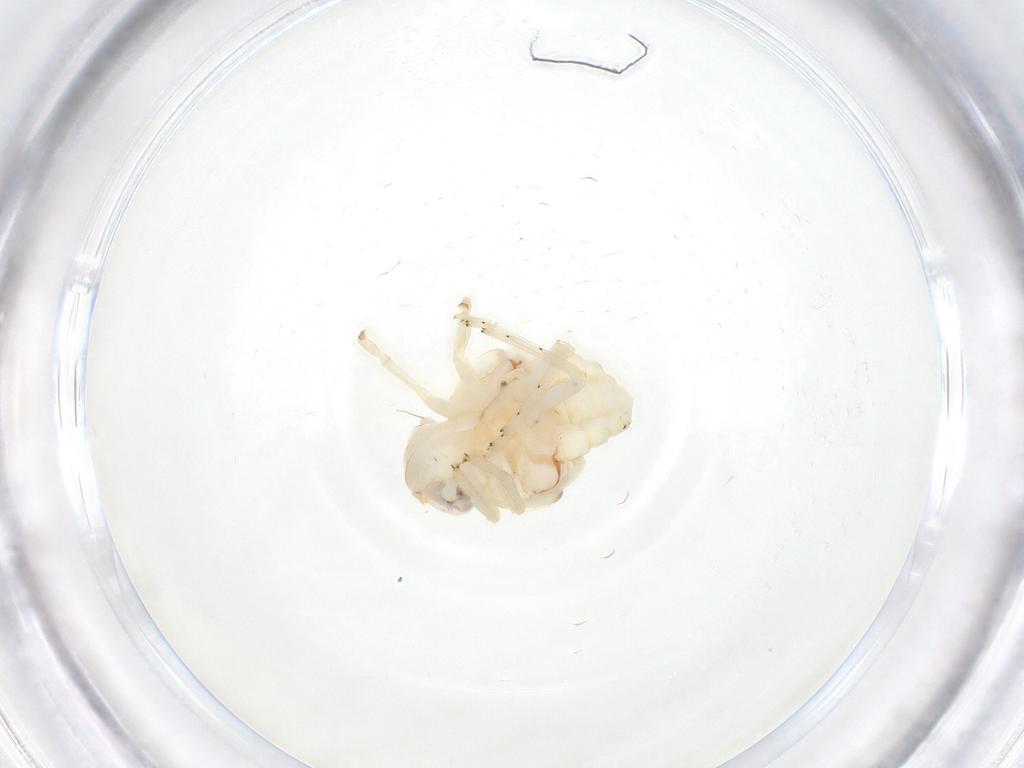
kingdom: Animalia
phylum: Arthropoda
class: Insecta
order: Hemiptera
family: Nogodinidae
